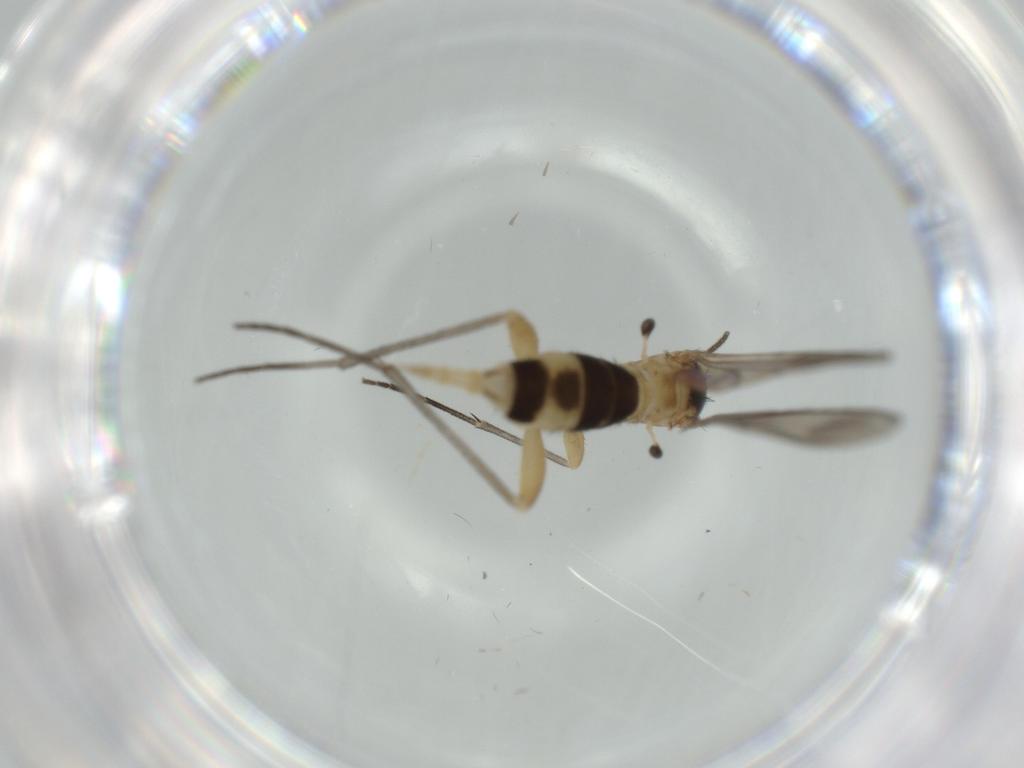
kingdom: Animalia
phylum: Arthropoda
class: Insecta
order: Diptera
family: Sciaridae
